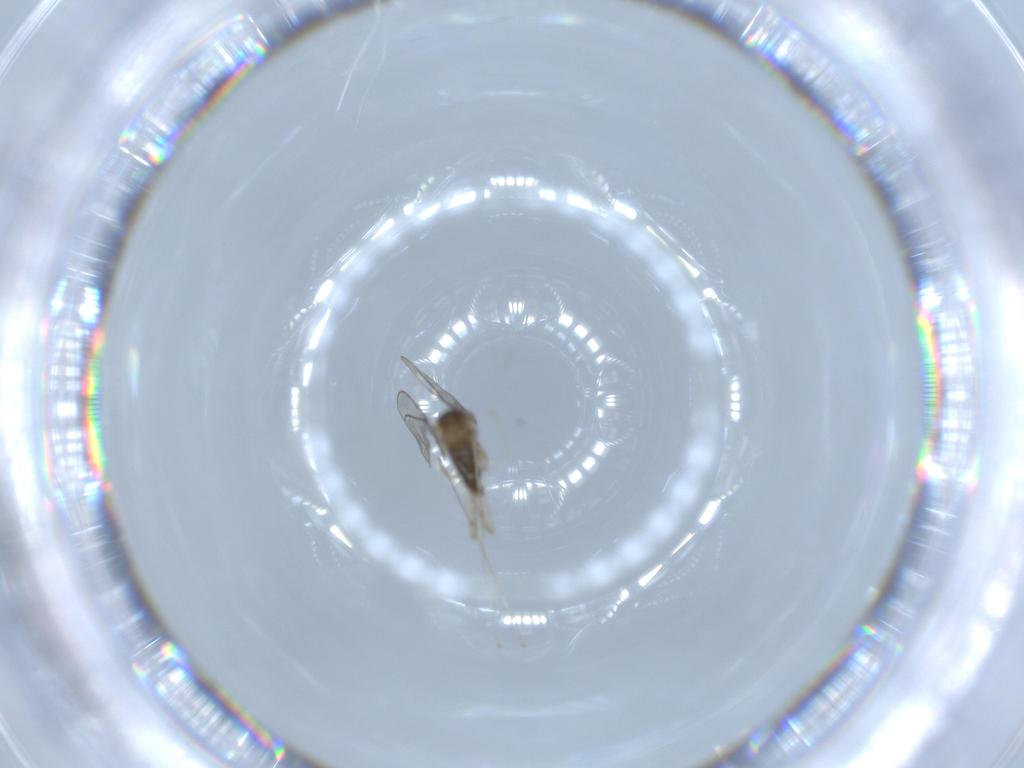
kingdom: Animalia
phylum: Arthropoda
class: Insecta
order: Diptera
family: Cecidomyiidae
